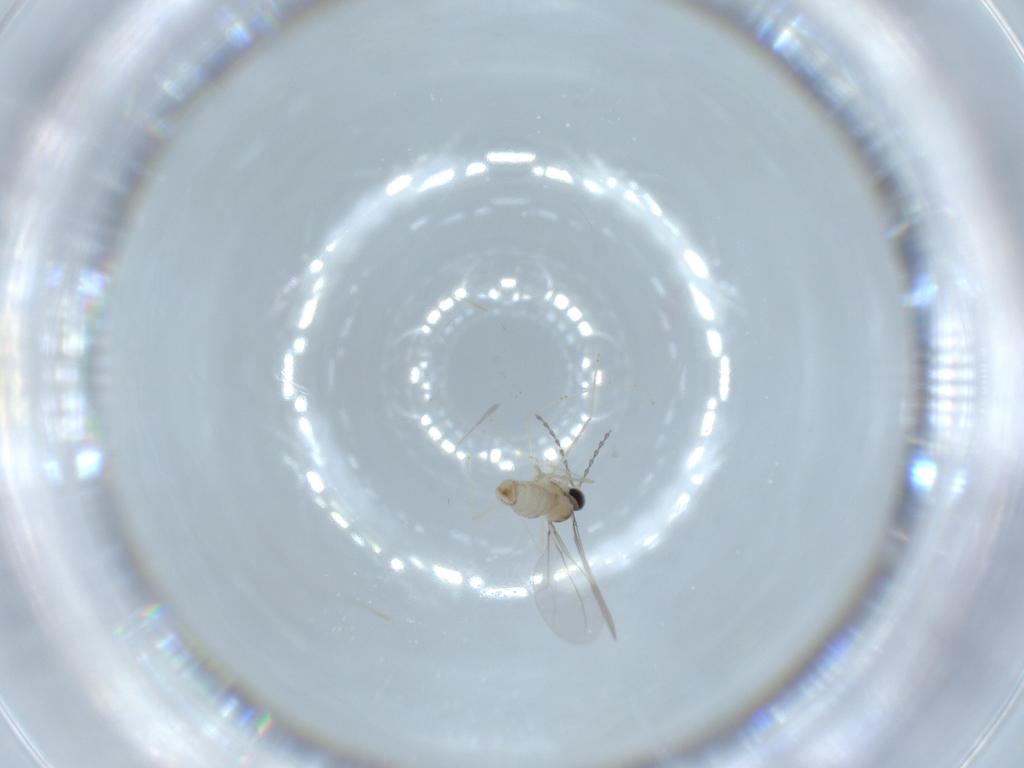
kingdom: Animalia
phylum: Arthropoda
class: Insecta
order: Diptera
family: Cecidomyiidae
